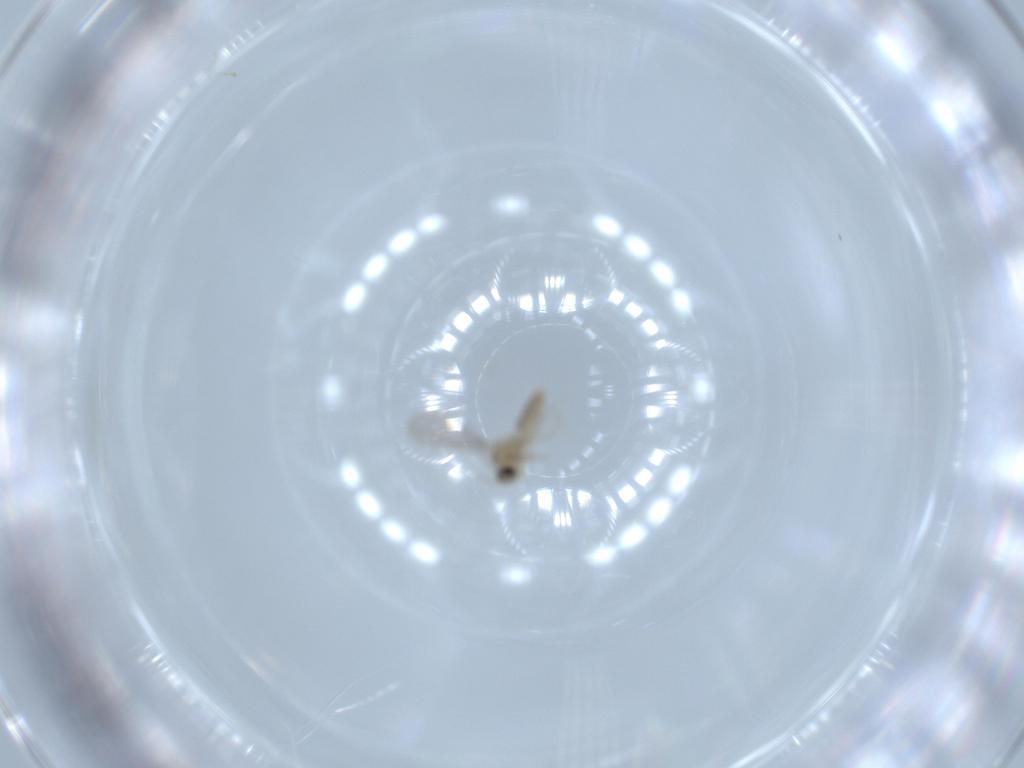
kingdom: Animalia
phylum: Arthropoda
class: Insecta
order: Diptera
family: Cecidomyiidae
